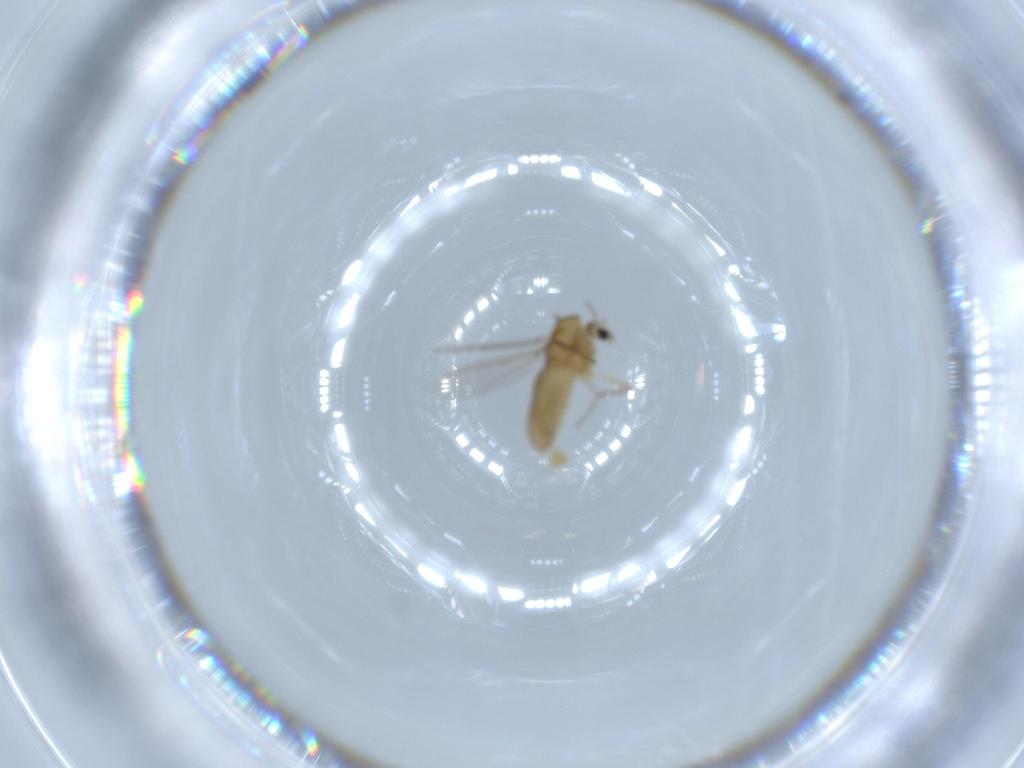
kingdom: Animalia
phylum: Arthropoda
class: Insecta
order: Diptera
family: Chironomidae
